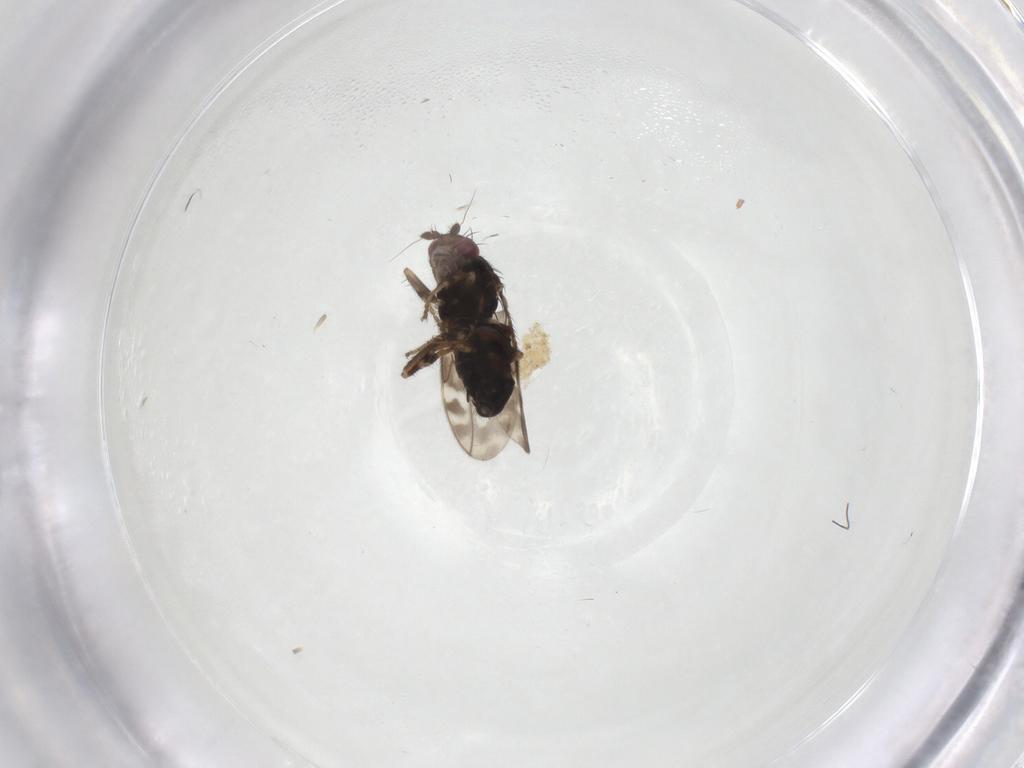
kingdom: Animalia
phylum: Arthropoda
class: Insecta
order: Diptera
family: Sphaeroceridae
